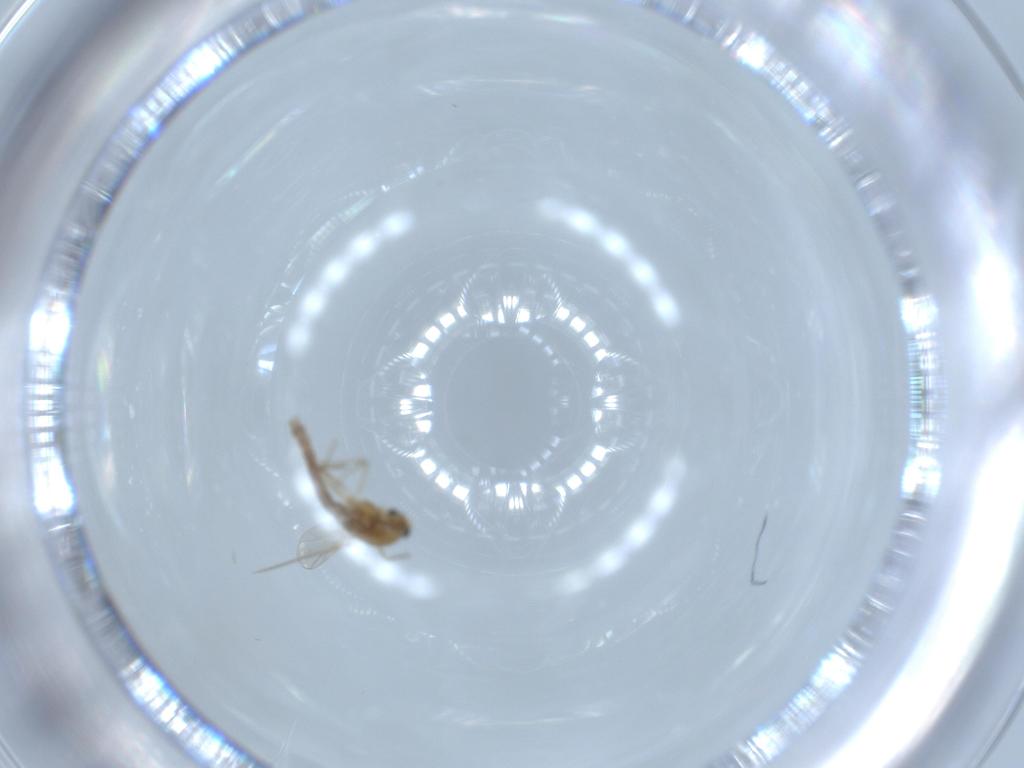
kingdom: Animalia
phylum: Arthropoda
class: Insecta
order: Diptera
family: Chironomidae
